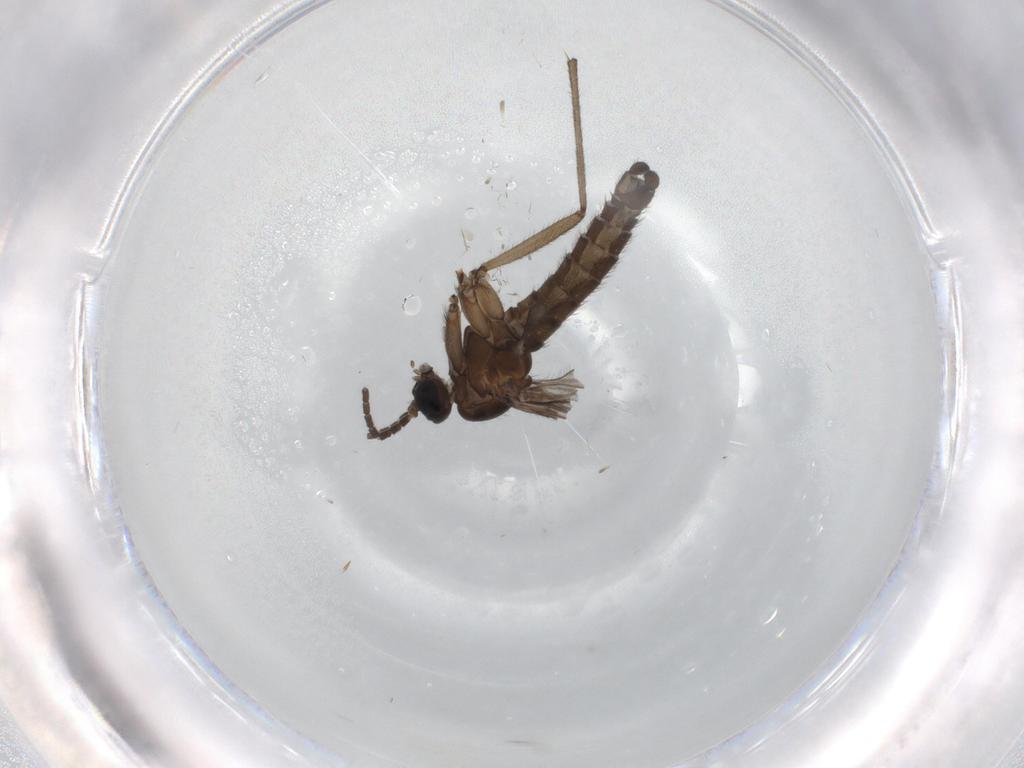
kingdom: Animalia
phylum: Arthropoda
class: Insecta
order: Diptera
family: Sciaridae
